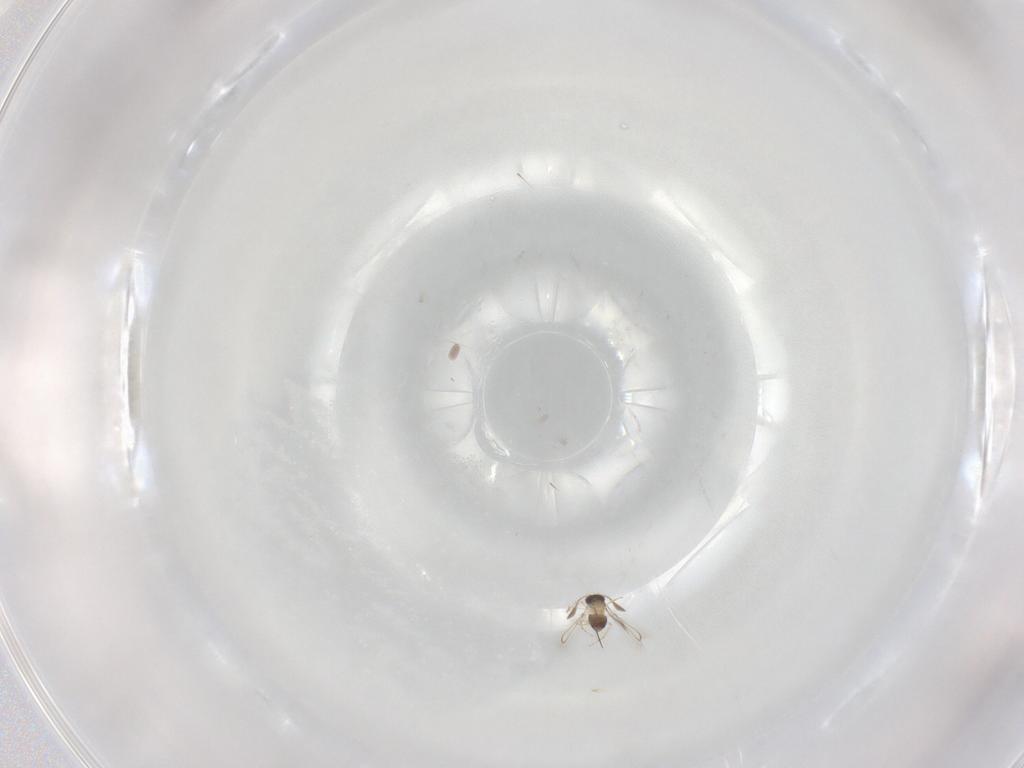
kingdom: Animalia
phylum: Arthropoda
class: Insecta
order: Hymenoptera
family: Mymaridae
